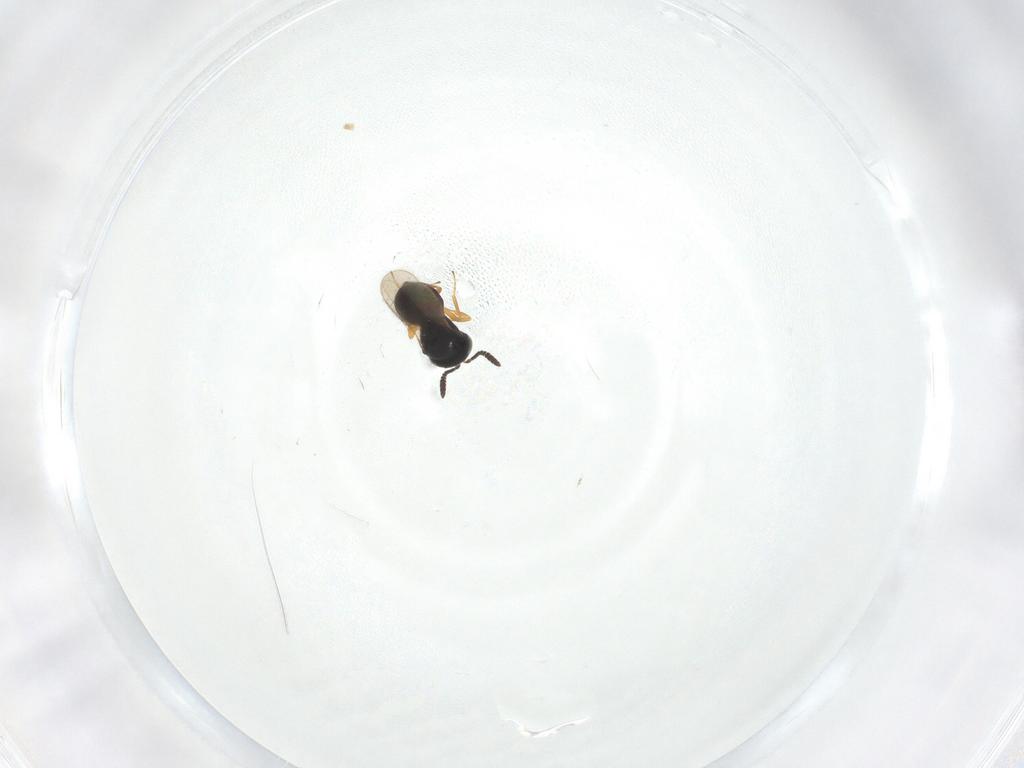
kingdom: Animalia
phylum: Arthropoda
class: Insecta
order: Hymenoptera
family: Scelionidae
